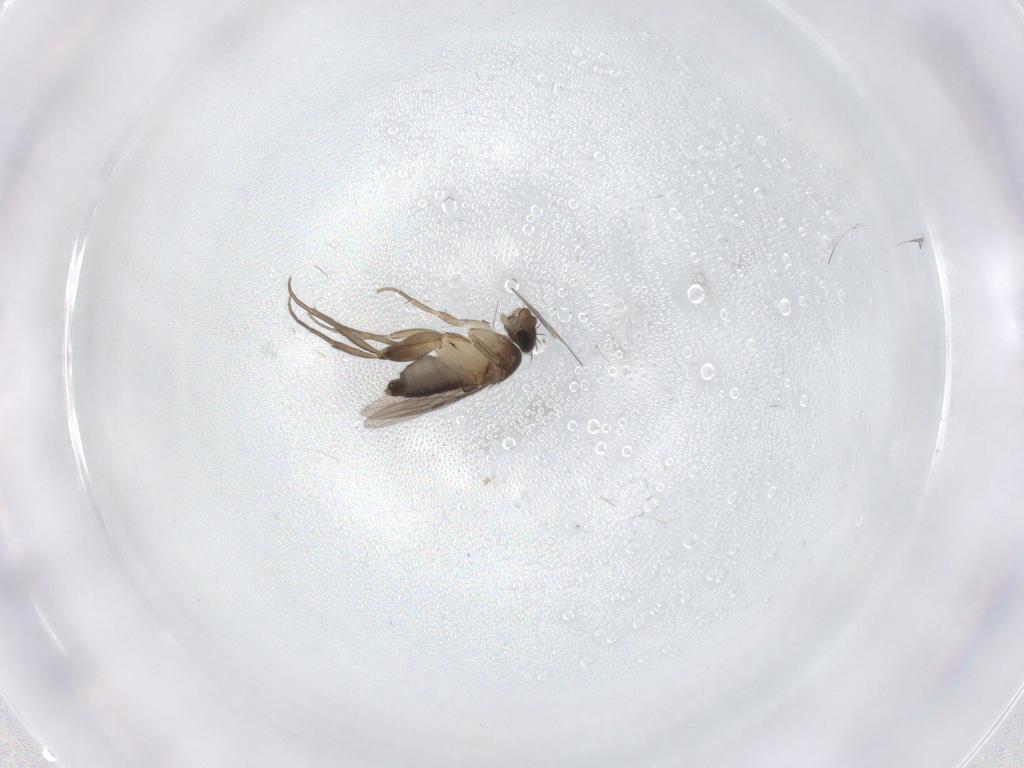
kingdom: Animalia
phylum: Arthropoda
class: Insecta
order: Diptera
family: Phoridae
